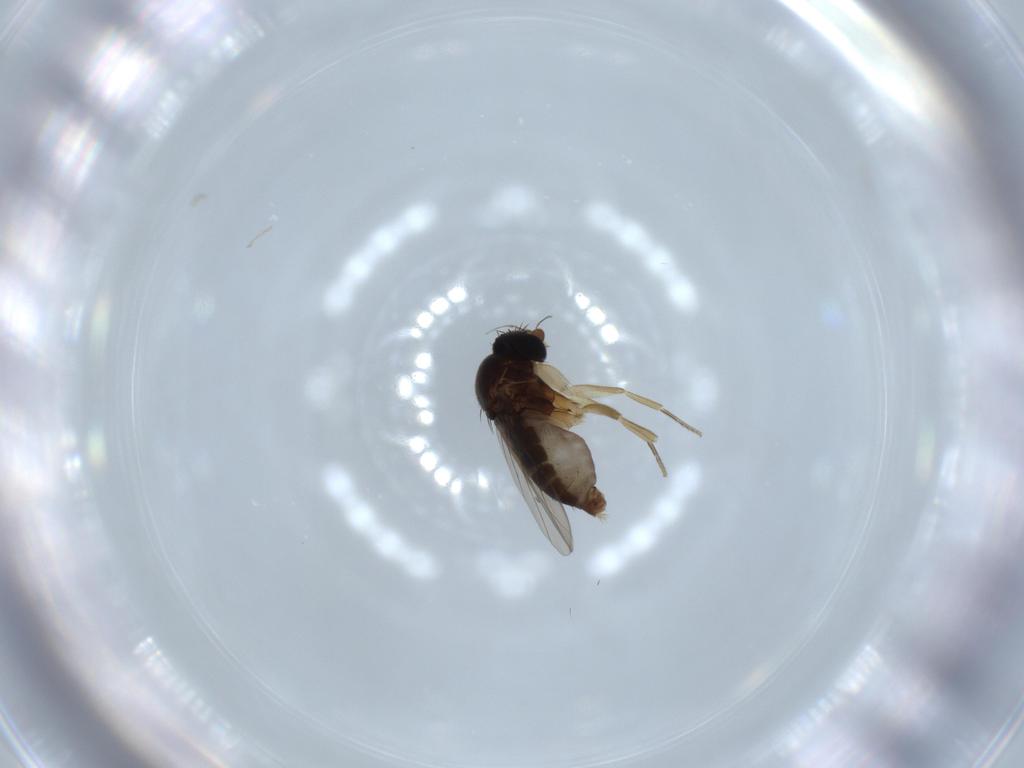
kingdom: Animalia
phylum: Arthropoda
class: Insecta
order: Diptera
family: Phoridae
